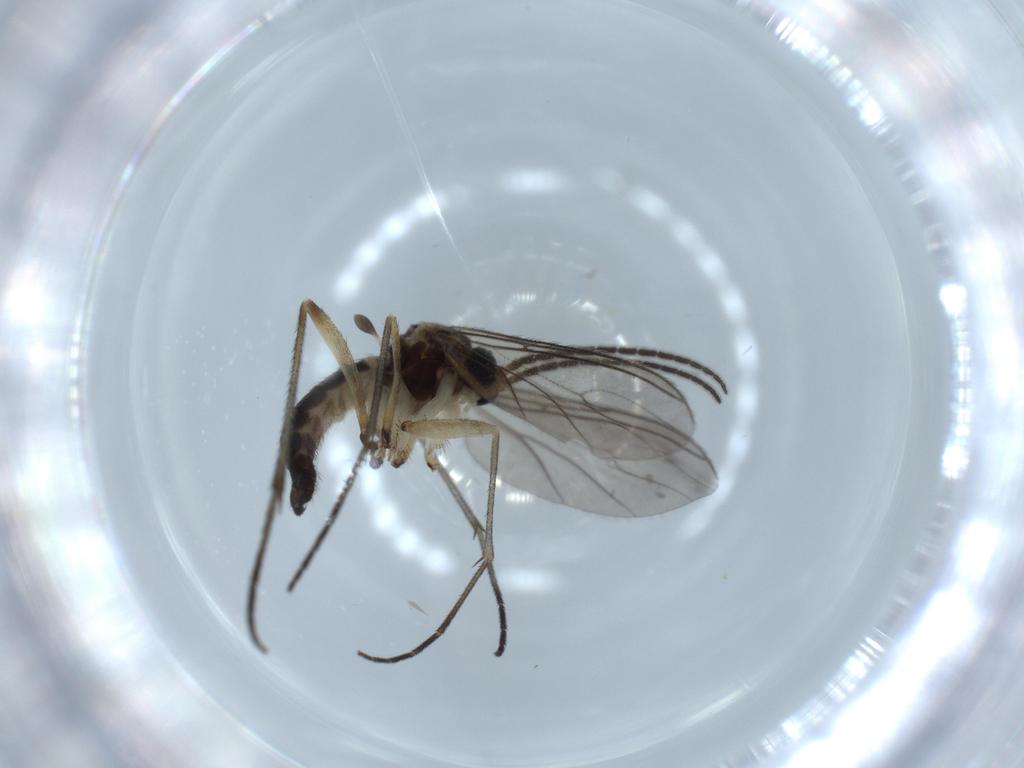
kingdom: Animalia
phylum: Arthropoda
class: Insecta
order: Diptera
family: Sciaridae
